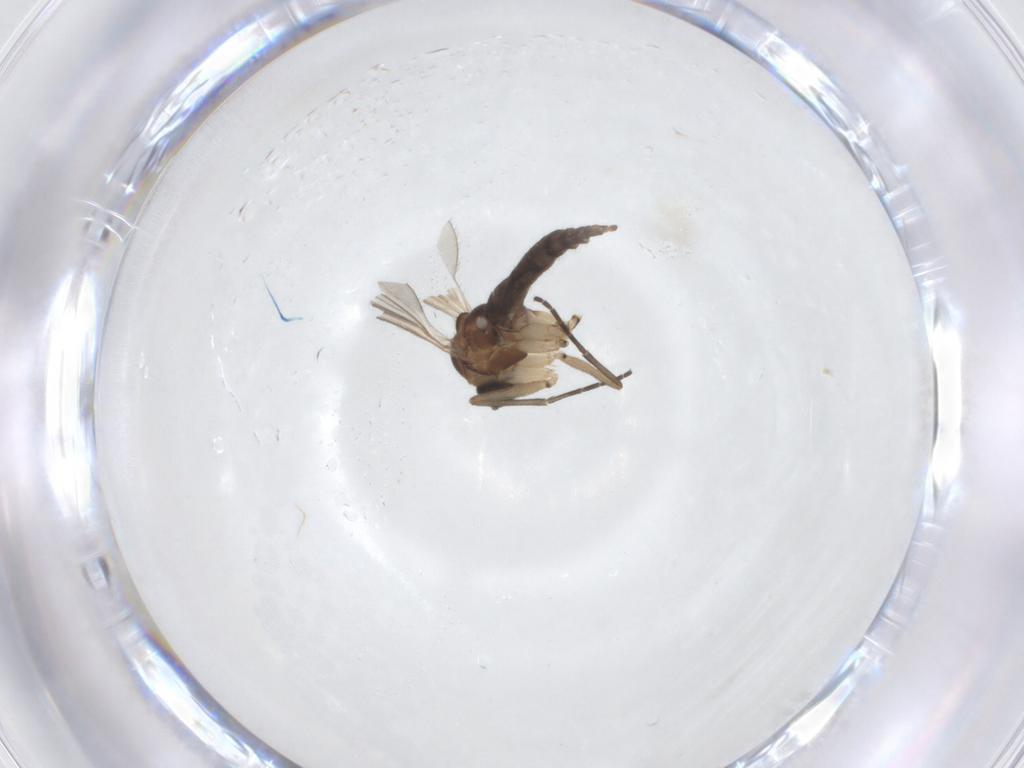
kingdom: Animalia
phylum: Arthropoda
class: Insecta
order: Diptera
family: Sciaridae
